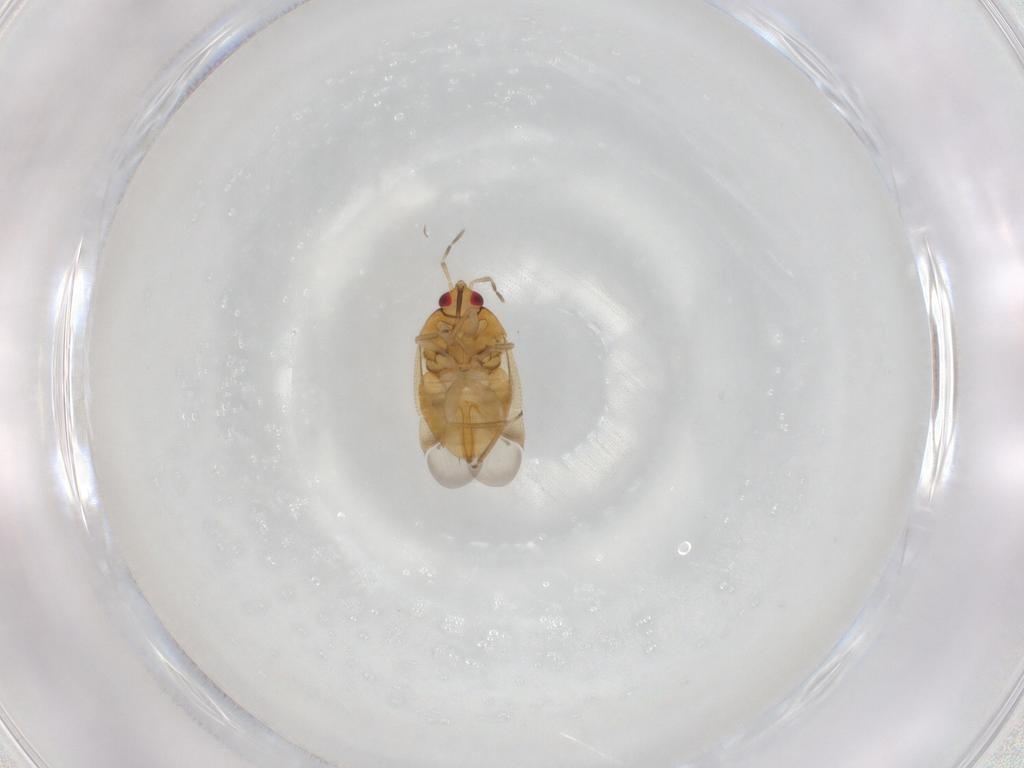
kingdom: Animalia
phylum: Arthropoda
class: Insecta
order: Hemiptera
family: Anthocoridae
